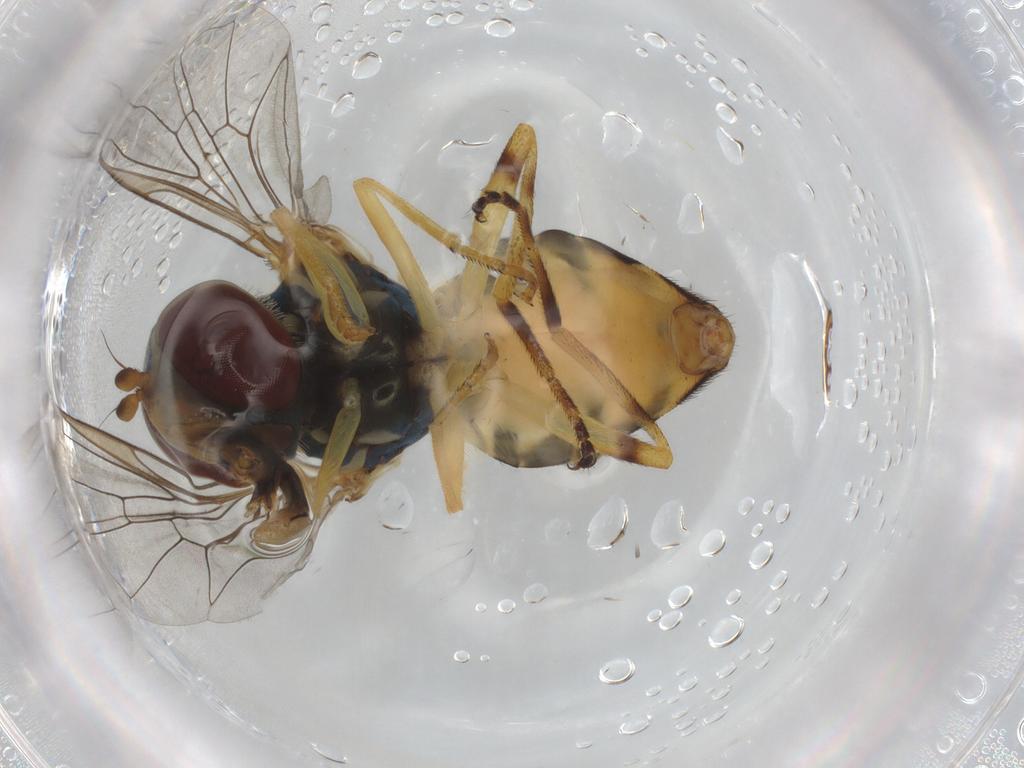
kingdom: Animalia
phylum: Arthropoda
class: Insecta
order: Diptera
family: Syrphidae
